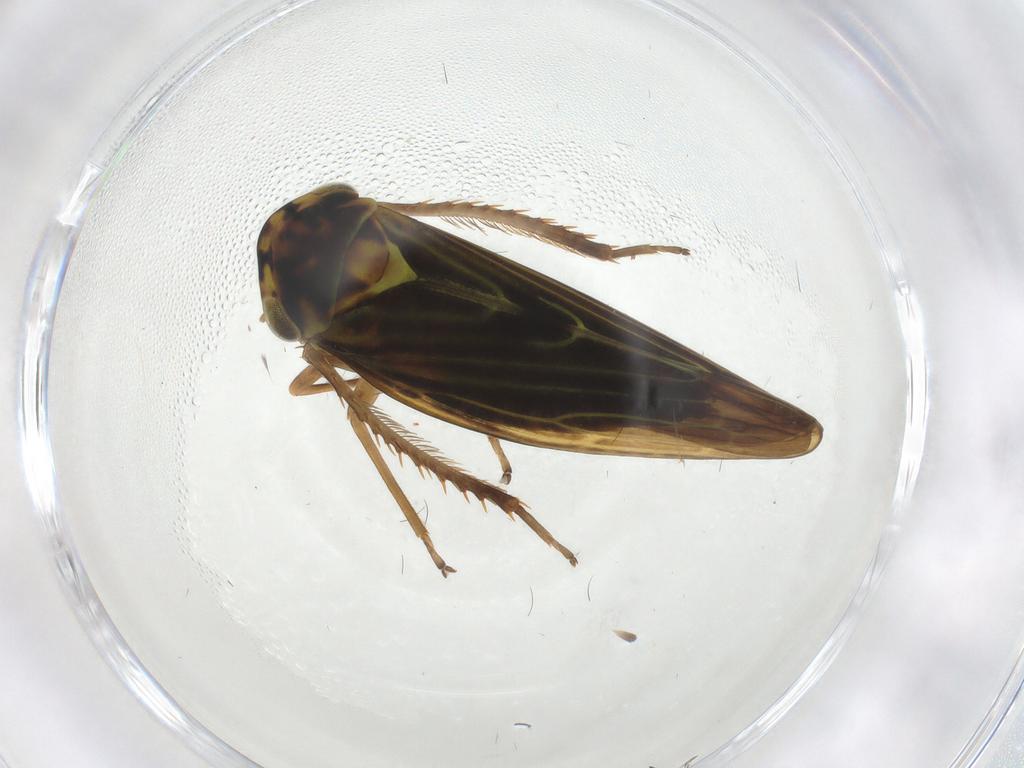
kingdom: Animalia
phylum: Arthropoda
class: Insecta
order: Hemiptera
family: Cicadellidae
